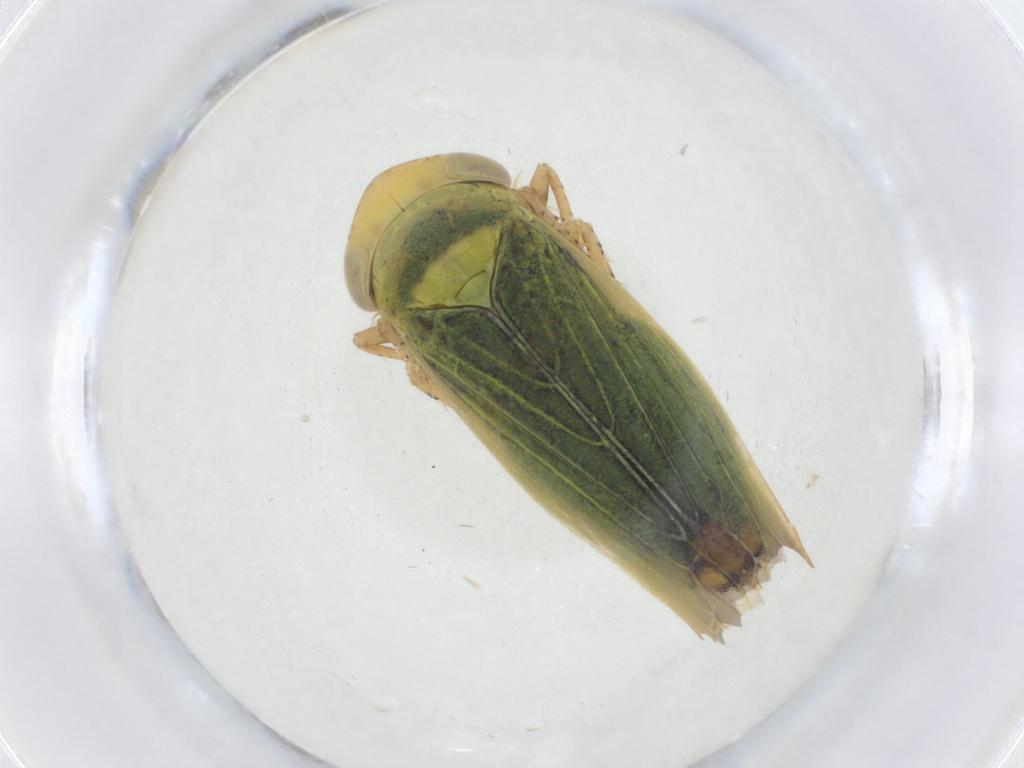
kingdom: Animalia
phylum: Arthropoda
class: Insecta
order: Hemiptera
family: Cicadellidae
